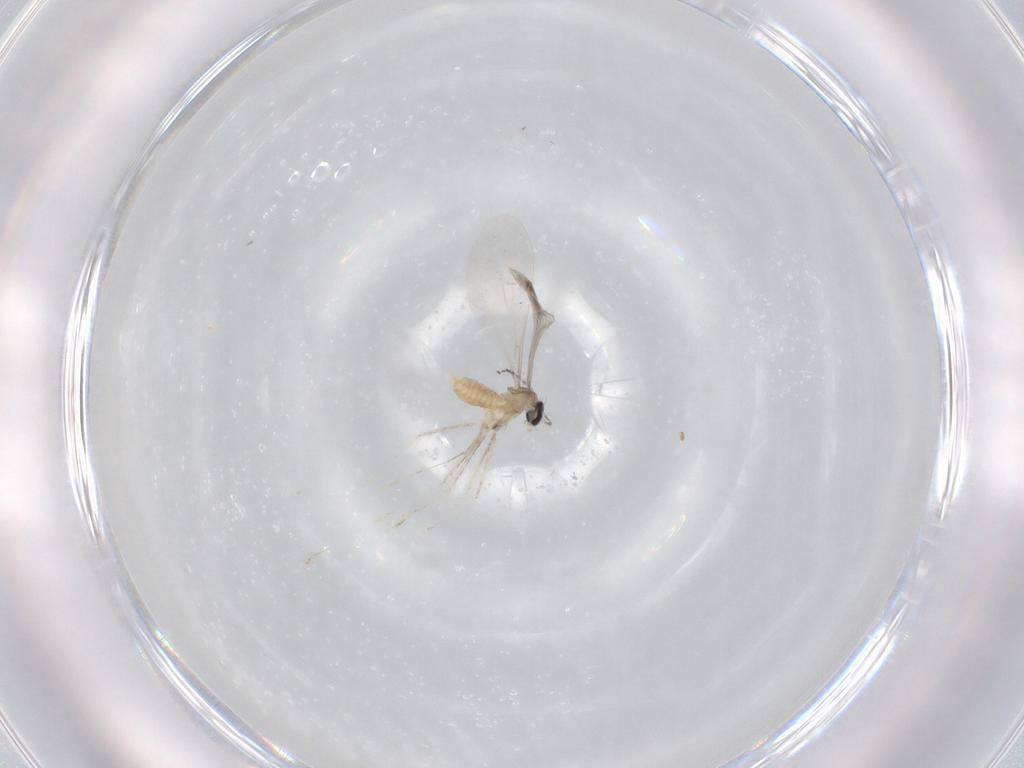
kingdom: Animalia
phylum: Arthropoda
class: Insecta
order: Diptera
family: Cecidomyiidae
